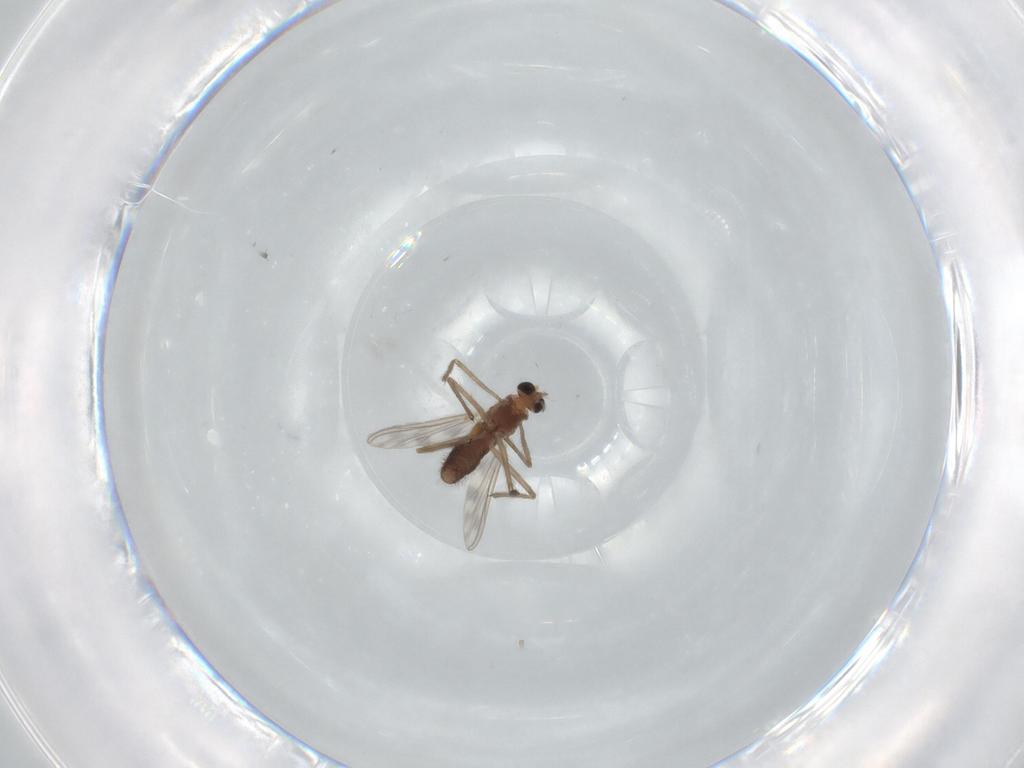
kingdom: Animalia
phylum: Arthropoda
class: Insecta
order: Diptera
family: Chironomidae
